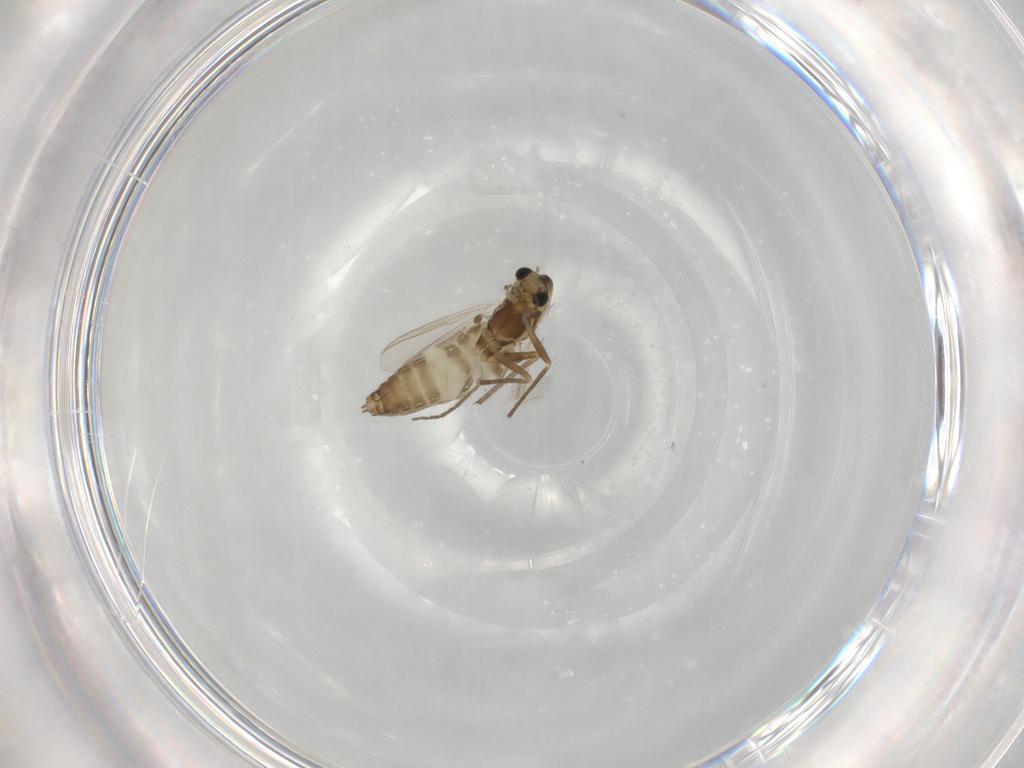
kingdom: Animalia
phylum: Arthropoda
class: Insecta
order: Diptera
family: Chironomidae
